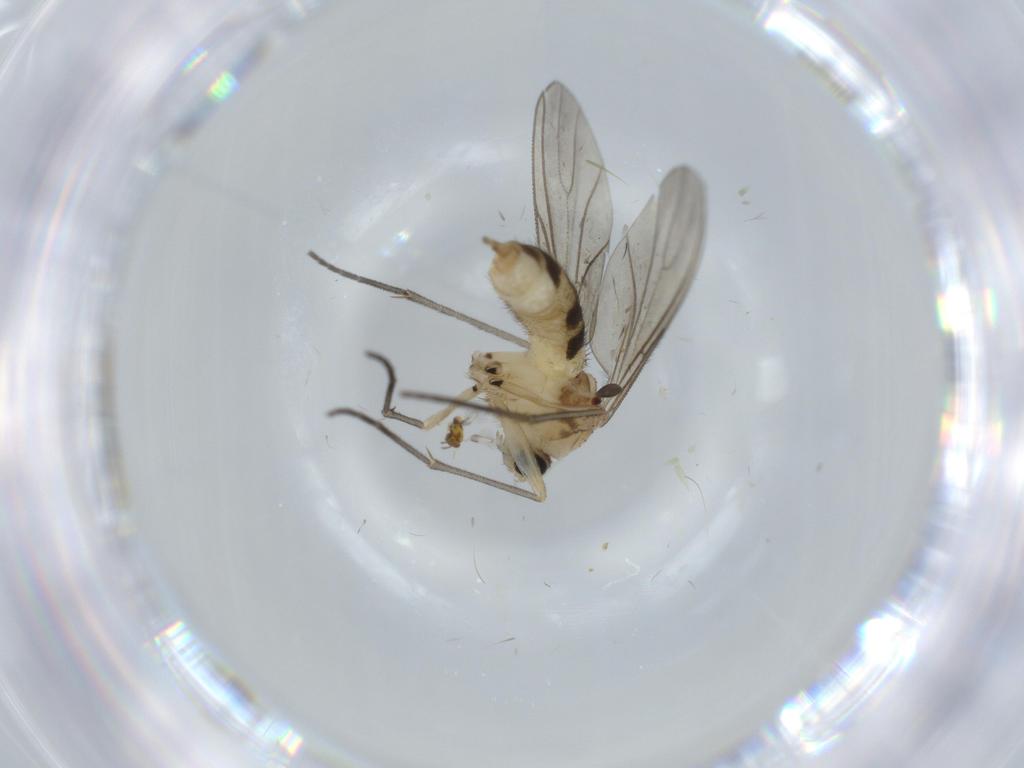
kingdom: Animalia
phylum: Arthropoda
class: Insecta
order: Diptera
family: Sciaridae
